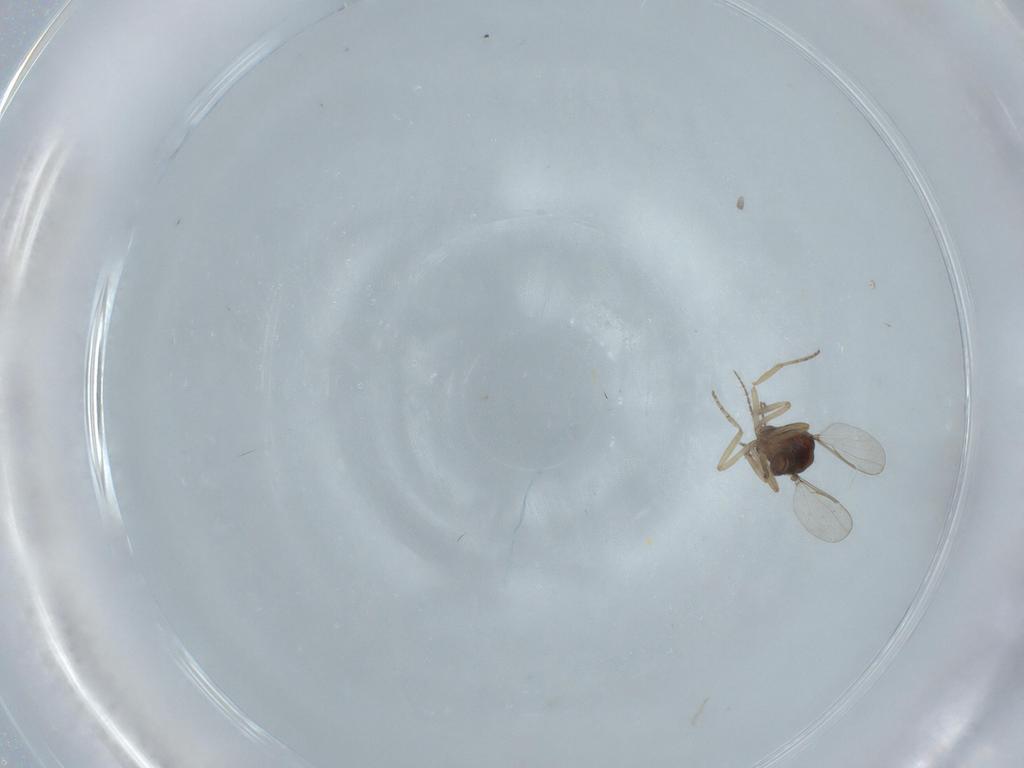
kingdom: Animalia
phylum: Arthropoda
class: Insecta
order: Diptera
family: Ceratopogonidae
